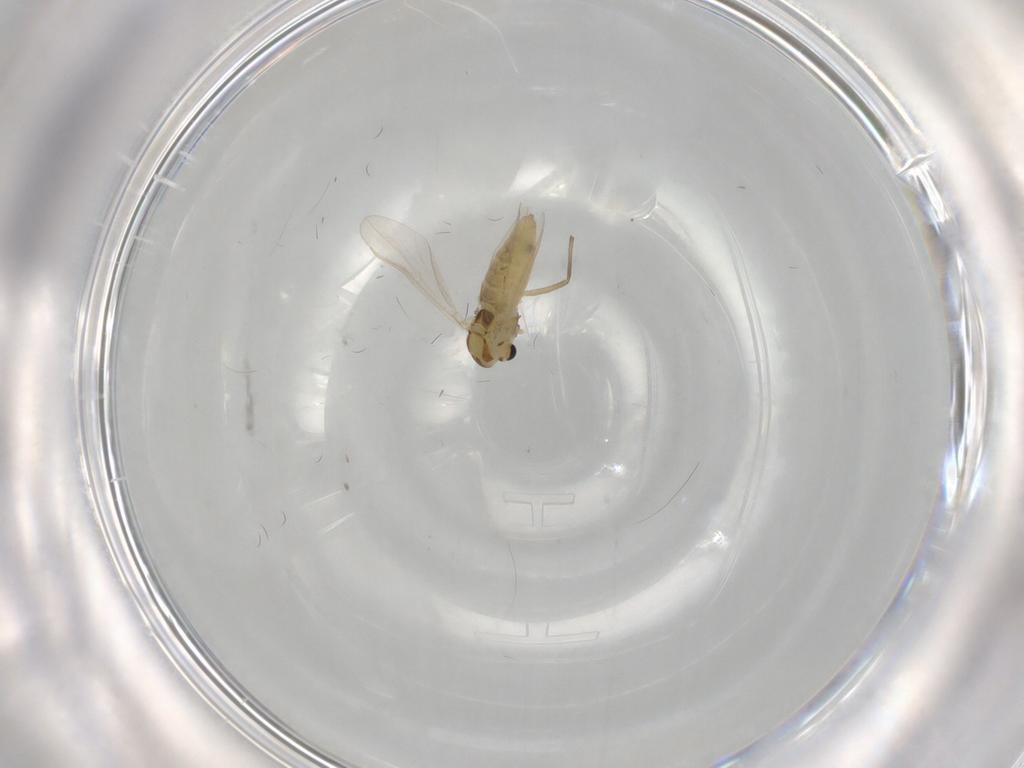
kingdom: Animalia
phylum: Arthropoda
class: Insecta
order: Diptera
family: Chironomidae
